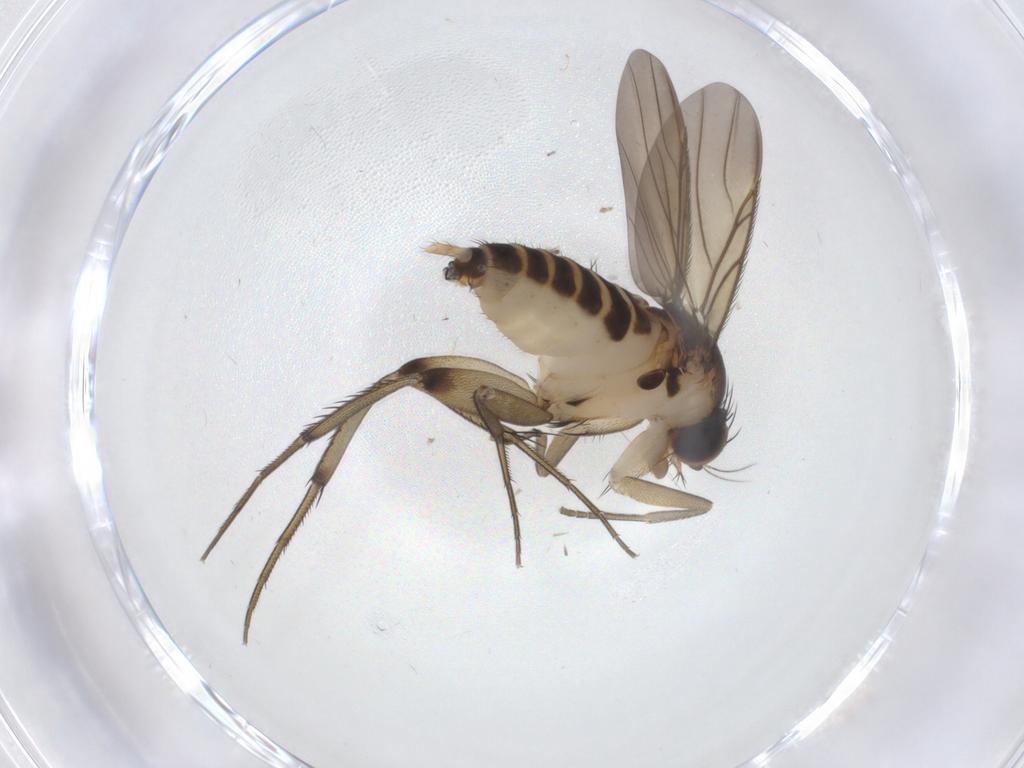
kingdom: Animalia
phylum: Arthropoda
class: Insecta
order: Diptera
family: Phoridae
